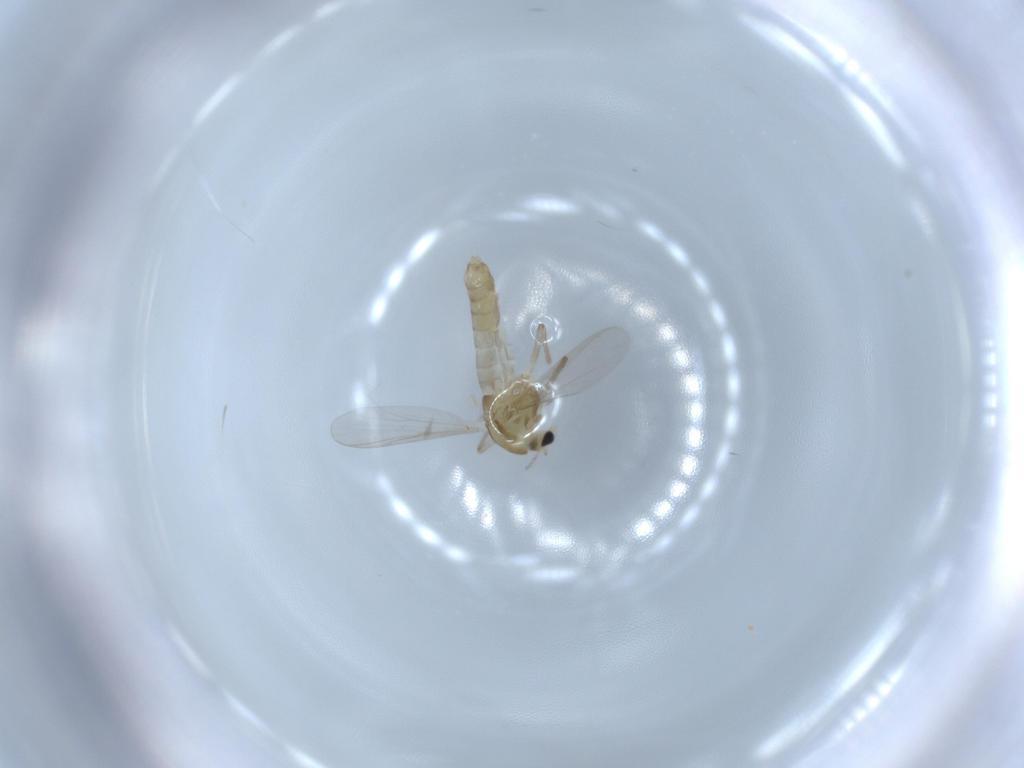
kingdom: Animalia
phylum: Arthropoda
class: Insecta
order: Diptera
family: Chironomidae
